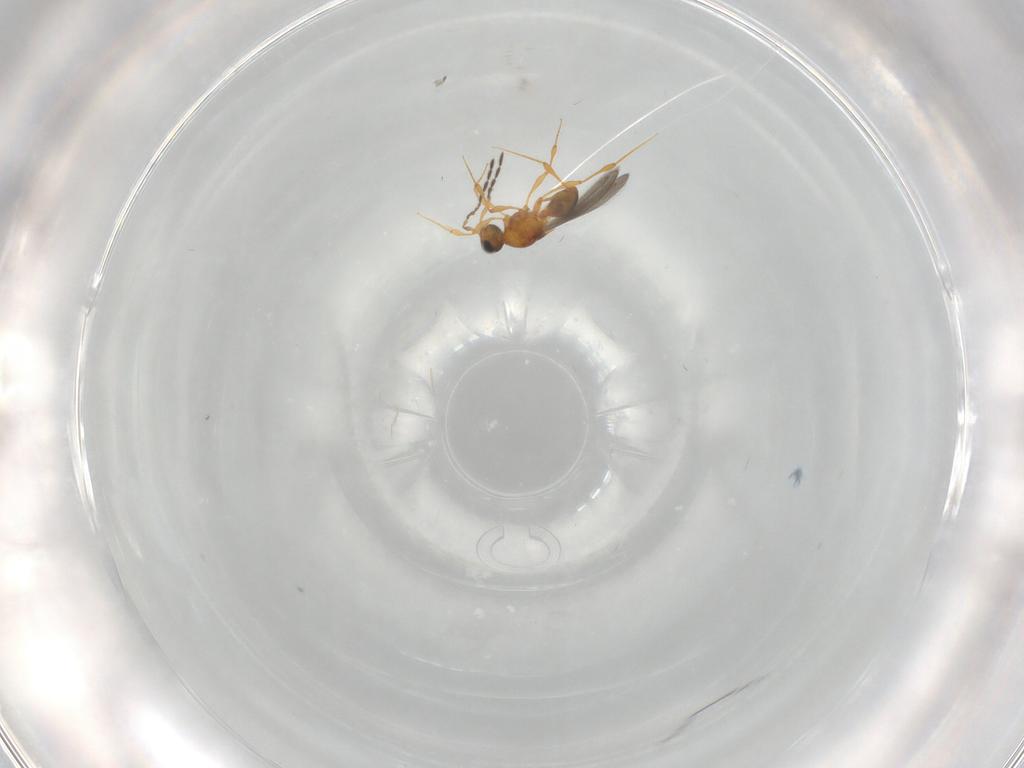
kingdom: Animalia
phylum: Arthropoda
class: Insecta
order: Hymenoptera
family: Platygastridae
